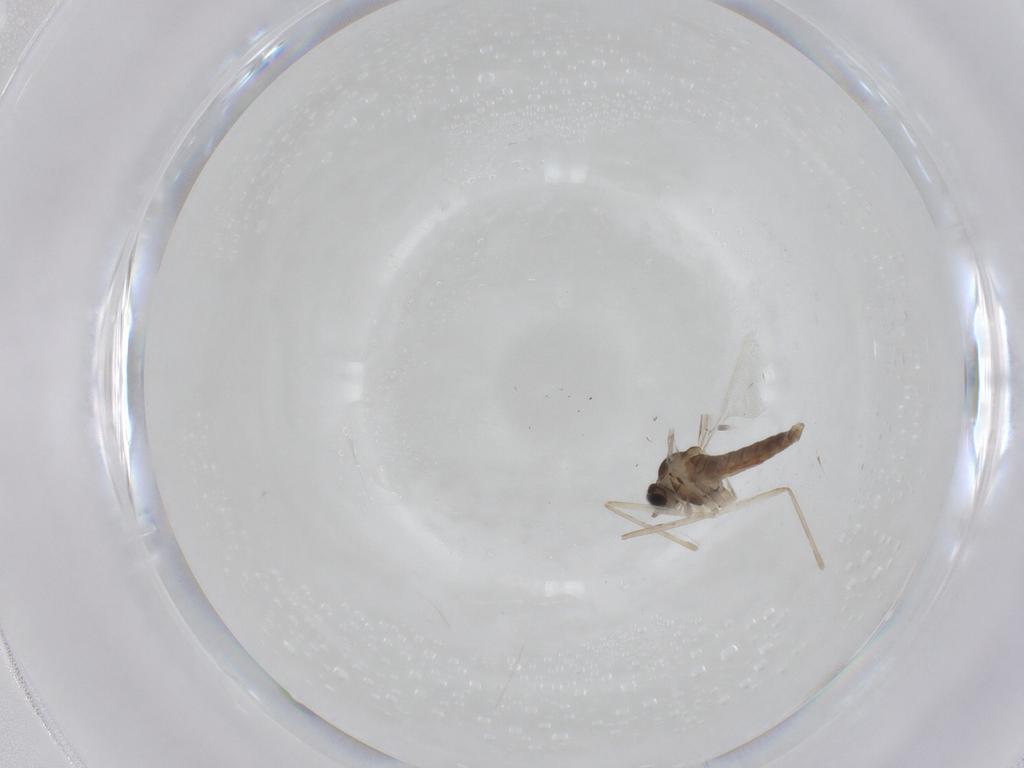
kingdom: Animalia
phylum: Arthropoda
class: Insecta
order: Diptera
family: Cecidomyiidae
